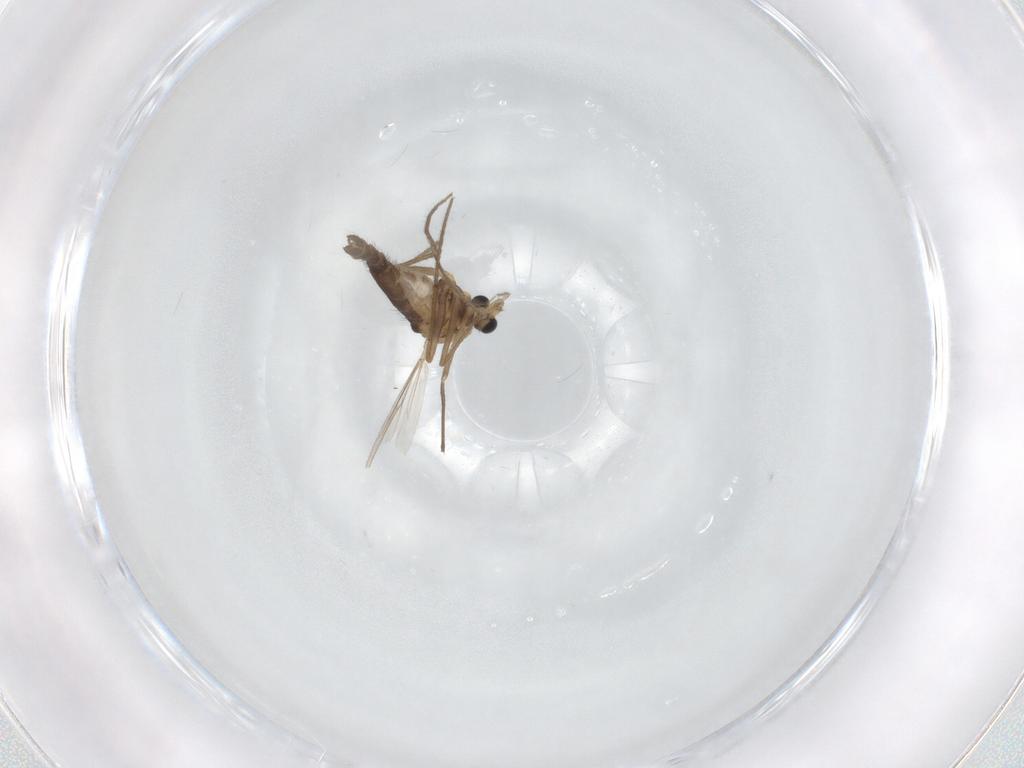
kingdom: Animalia
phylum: Arthropoda
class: Insecta
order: Diptera
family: Chironomidae
